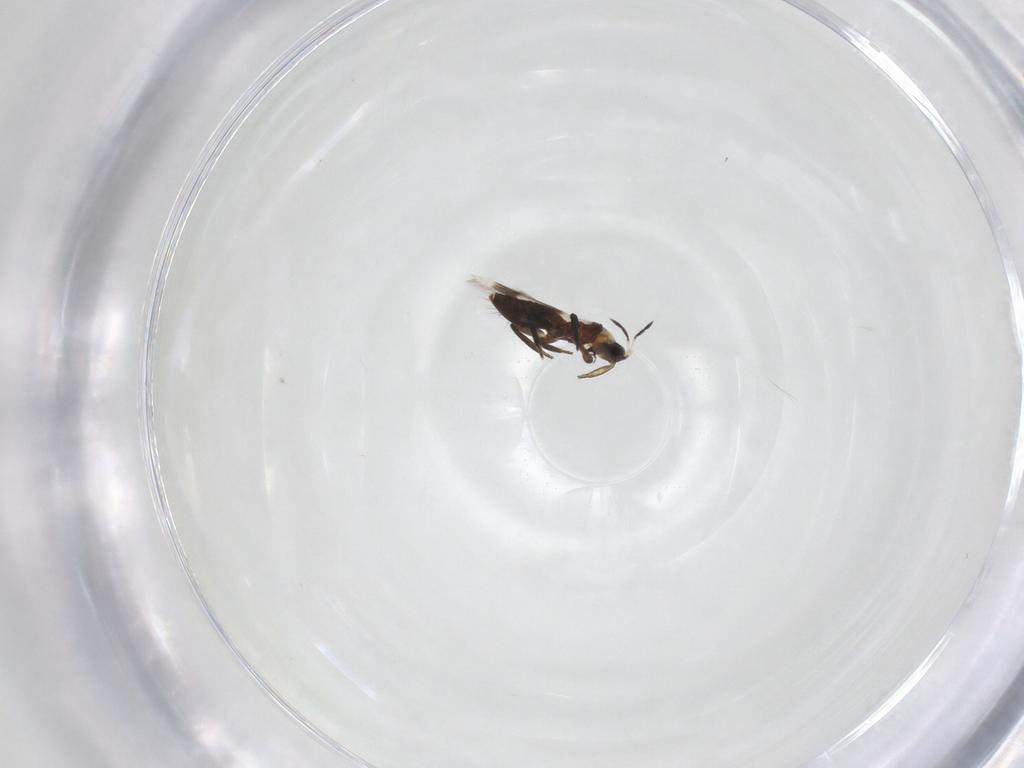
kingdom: Animalia
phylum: Arthropoda
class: Insecta
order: Thysanoptera
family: Aeolothripidae
